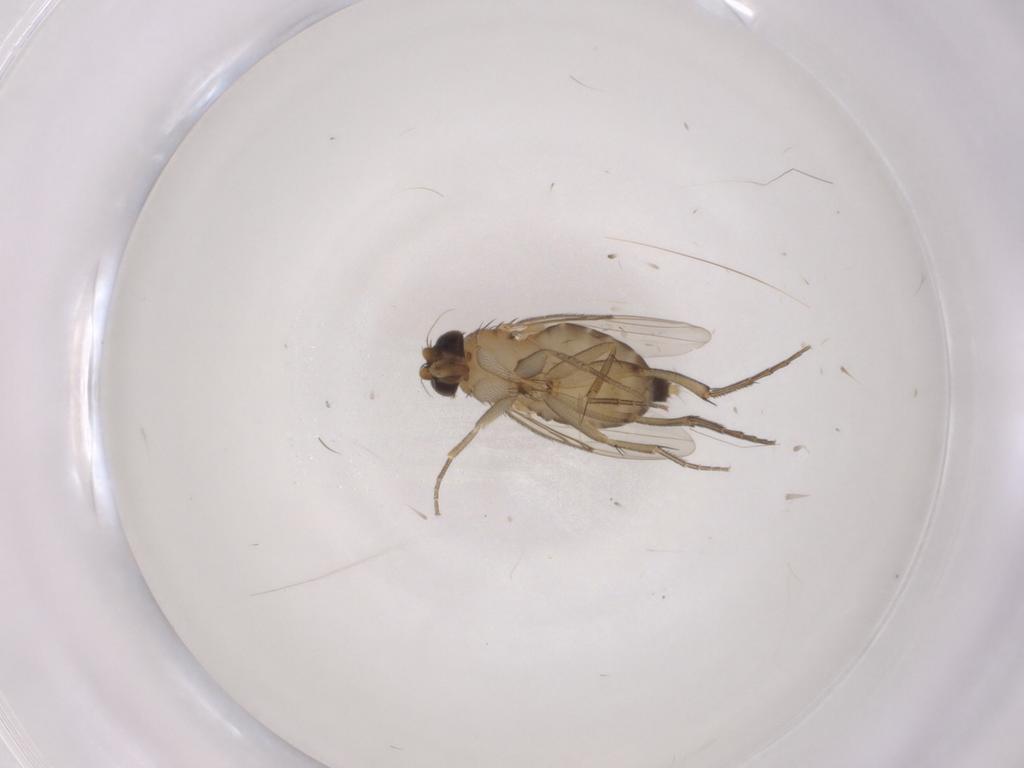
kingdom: Animalia
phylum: Arthropoda
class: Insecta
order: Diptera
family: Phoridae
